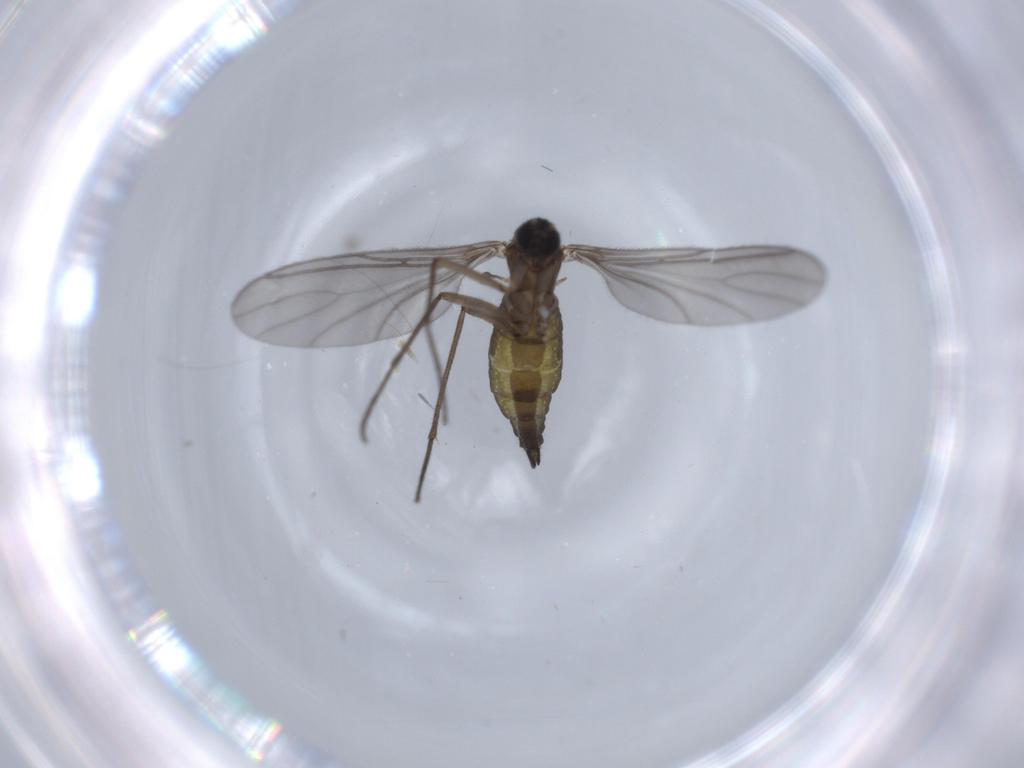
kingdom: Animalia
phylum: Arthropoda
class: Insecta
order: Diptera
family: Sciaridae
